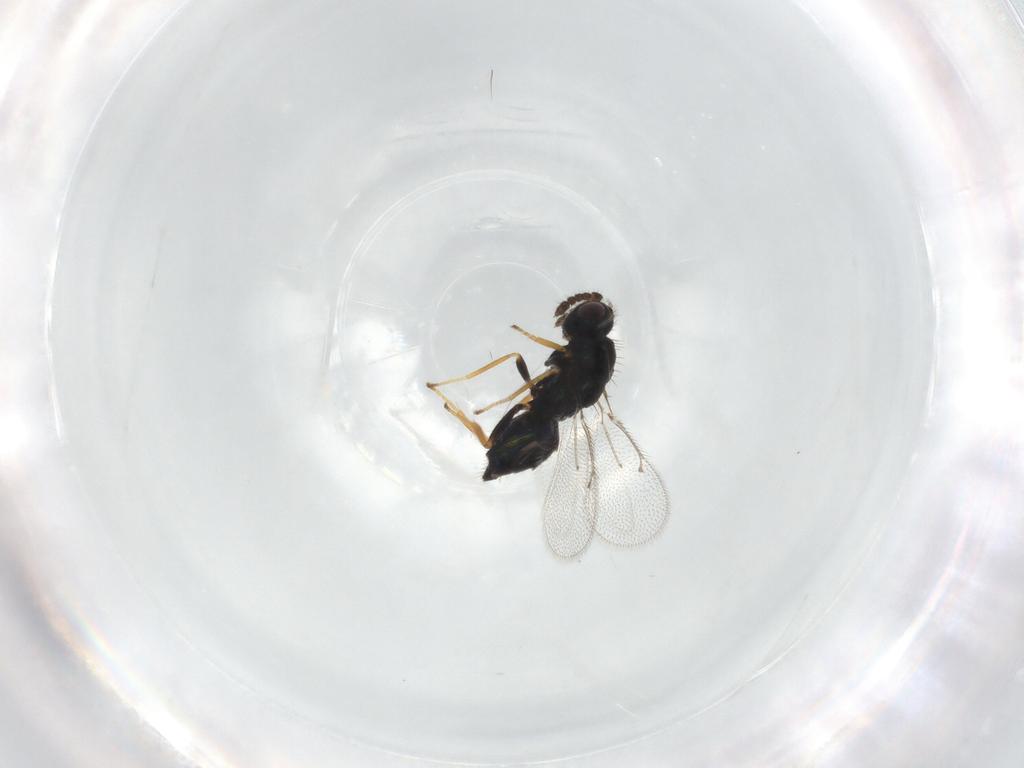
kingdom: Animalia
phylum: Arthropoda
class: Insecta
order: Hymenoptera
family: Eulophidae
